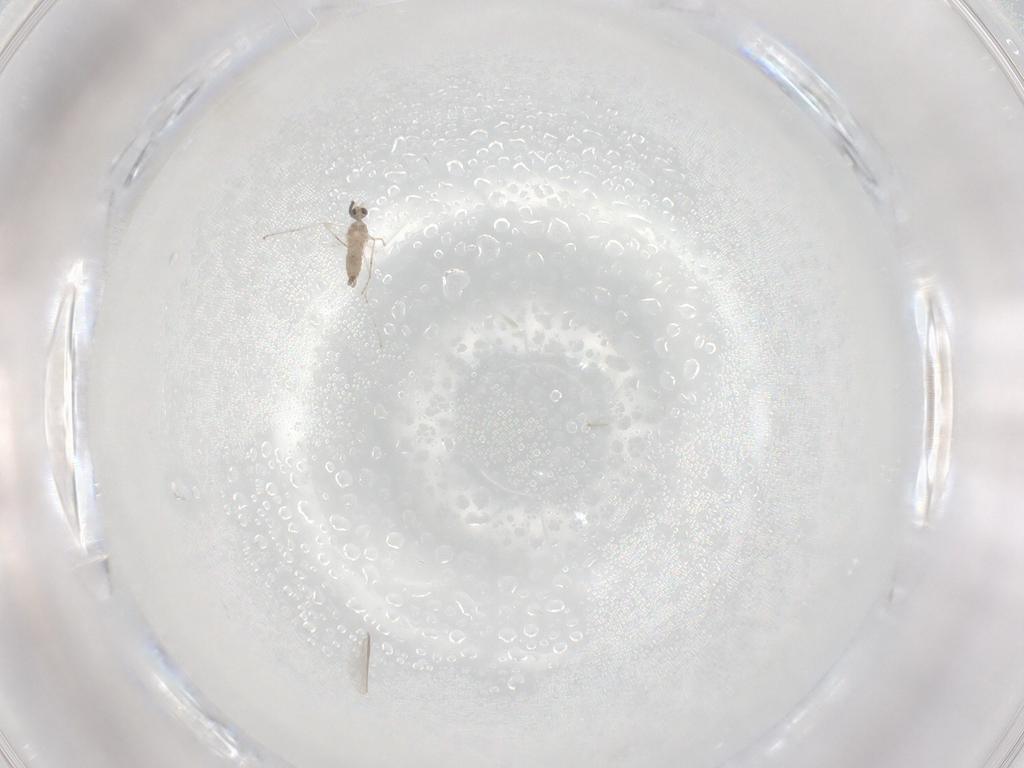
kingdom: Animalia
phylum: Arthropoda
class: Insecta
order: Diptera
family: Cecidomyiidae
